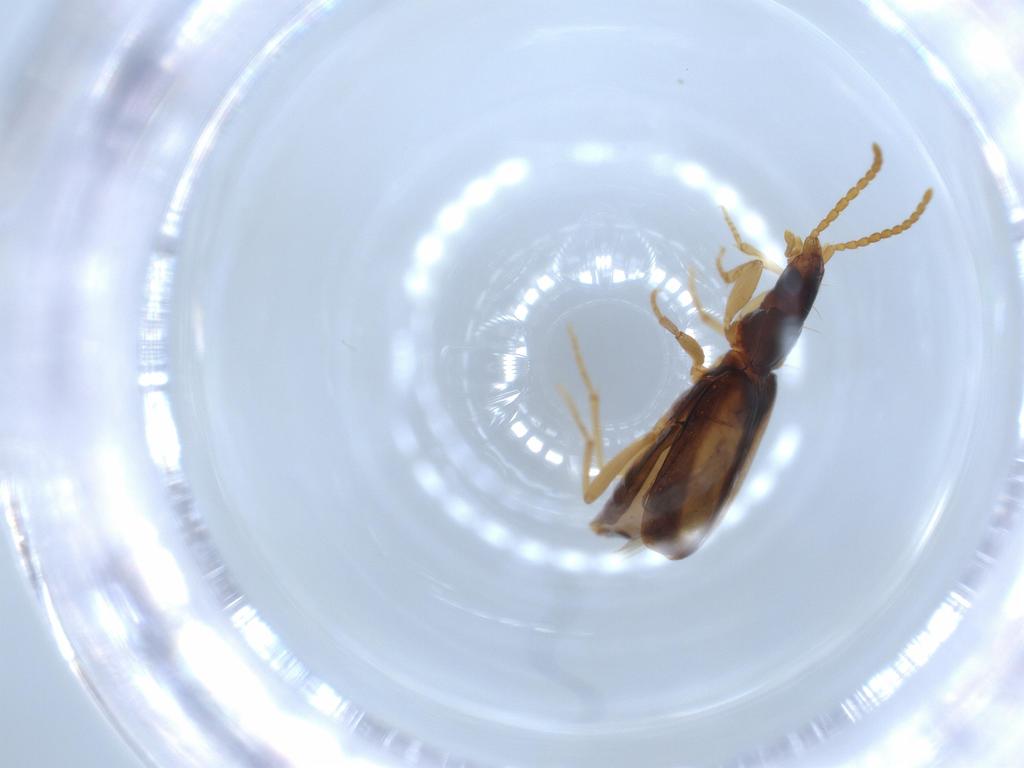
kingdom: Animalia
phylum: Arthropoda
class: Insecta
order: Coleoptera
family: Carabidae
